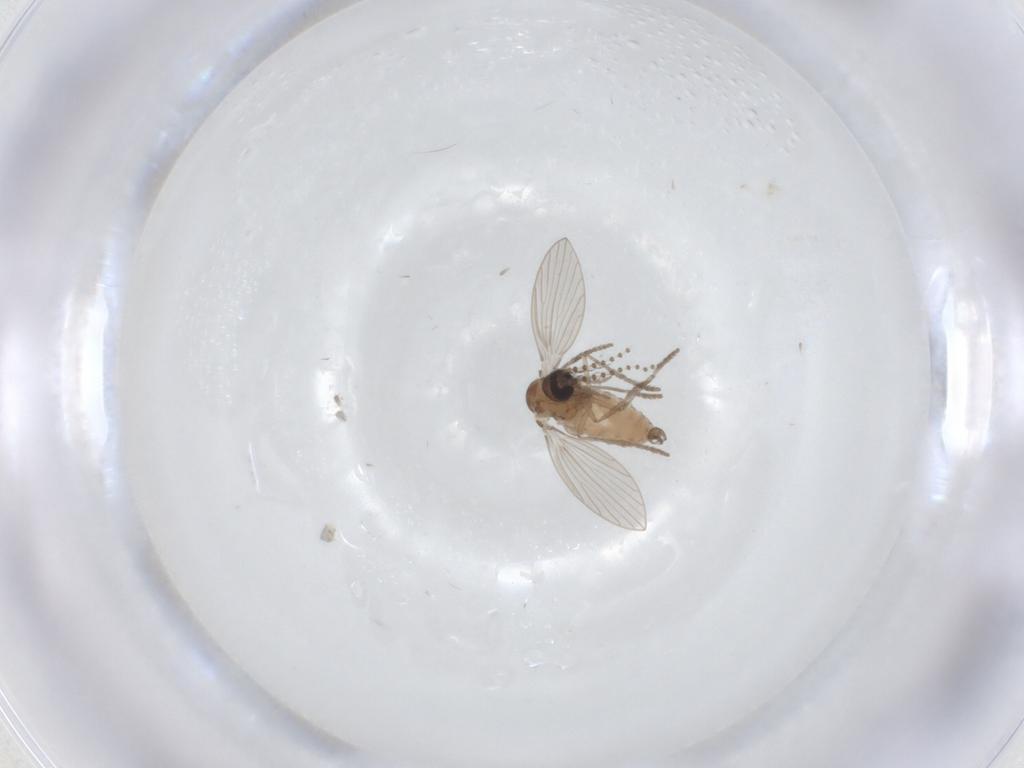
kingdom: Animalia
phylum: Arthropoda
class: Insecta
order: Diptera
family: Psychodidae
